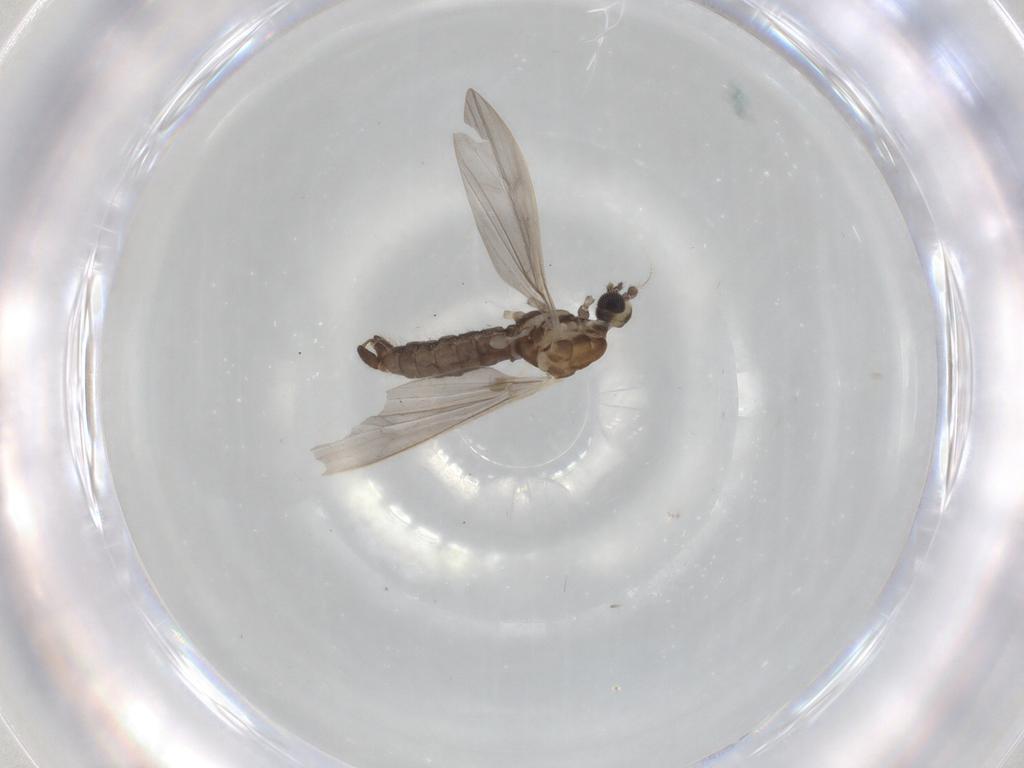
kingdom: Animalia
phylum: Arthropoda
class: Insecta
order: Diptera
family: Limoniidae
